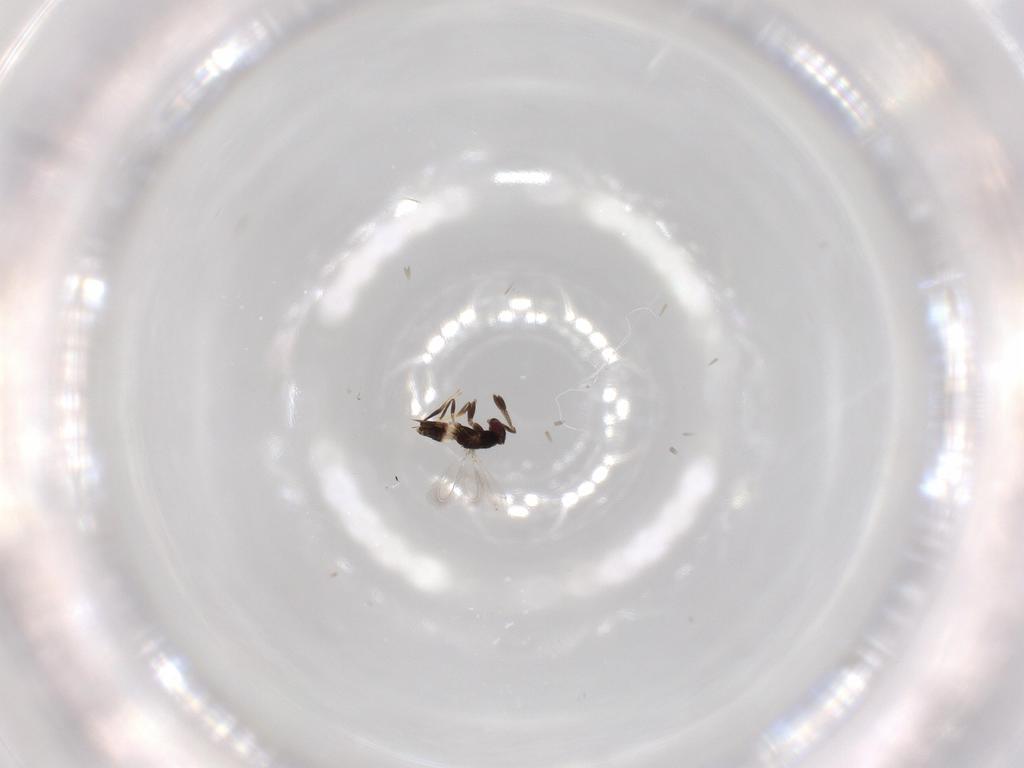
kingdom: Animalia
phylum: Arthropoda
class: Insecta
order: Hymenoptera
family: Mymaridae
